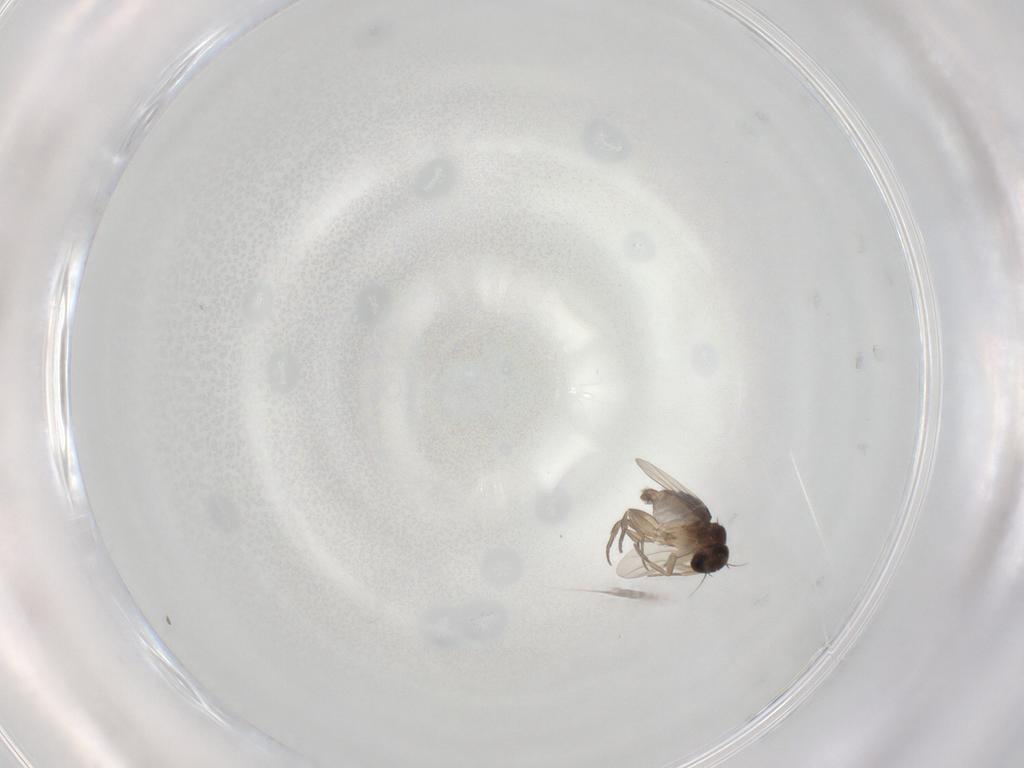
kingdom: Animalia
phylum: Arthropoda
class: Insecta
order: Diptera
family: Phoridae
